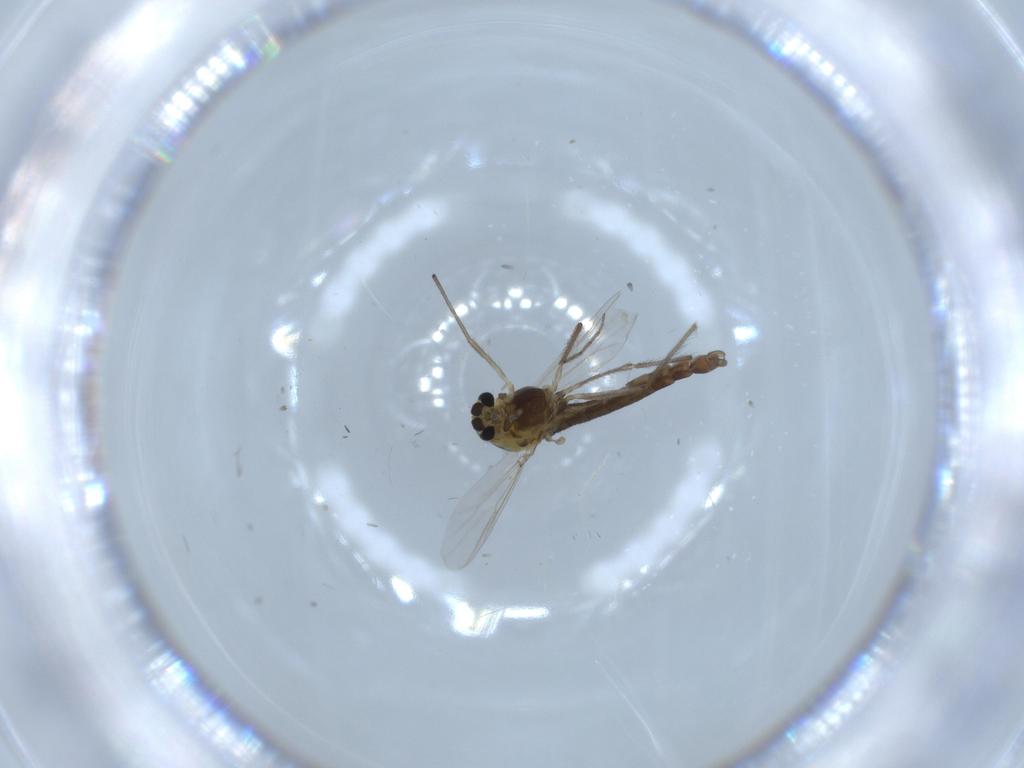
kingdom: Animalia
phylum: Arthropoda
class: Insecta
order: Diptera
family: Chironomidae
